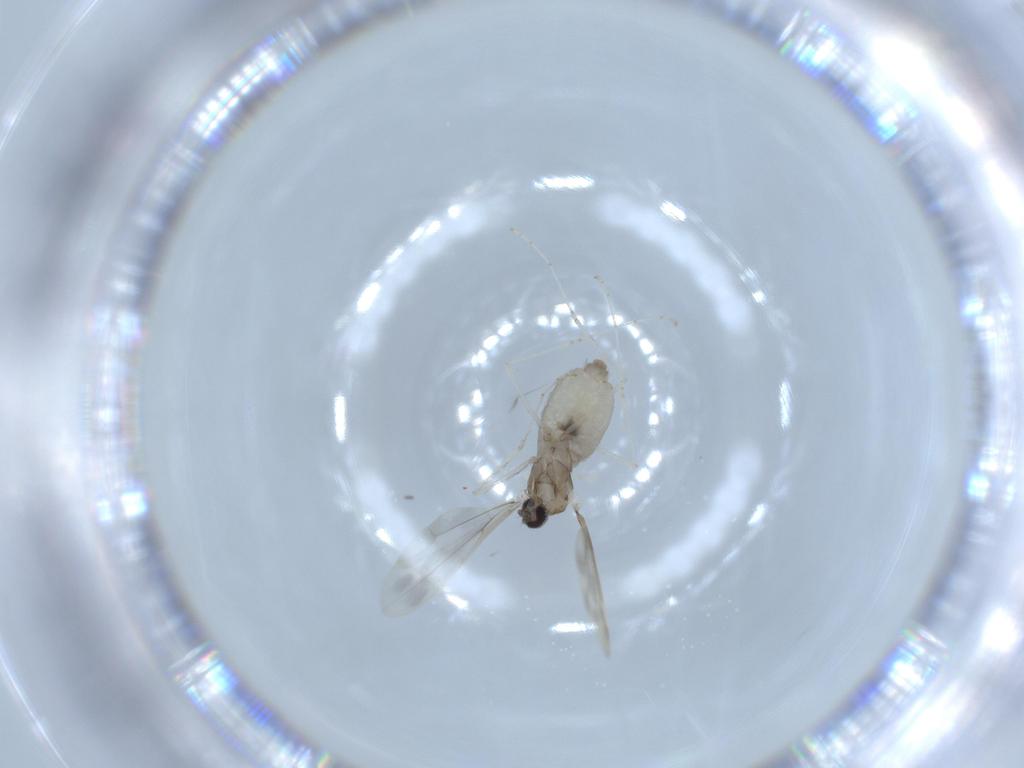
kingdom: Animalia
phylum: Arthropoda
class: Insecta
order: Diptera
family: Cecidomyiidae
